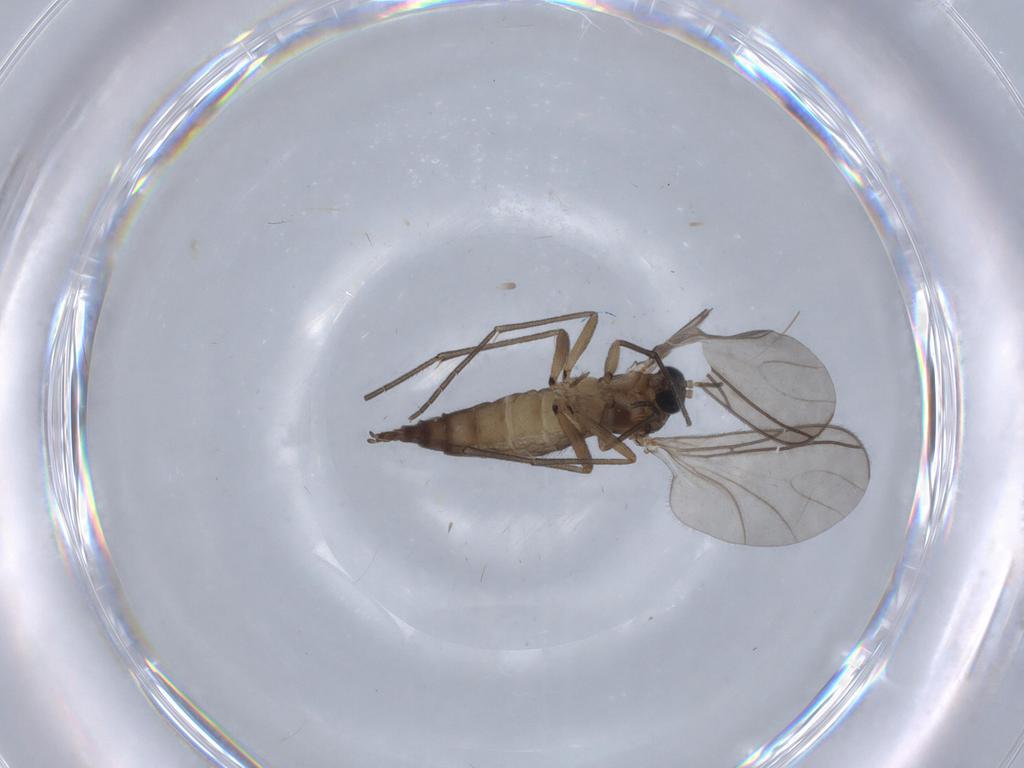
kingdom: Animalia
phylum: Arthropoda
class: Insecta
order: Diptera
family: Sciaridae
